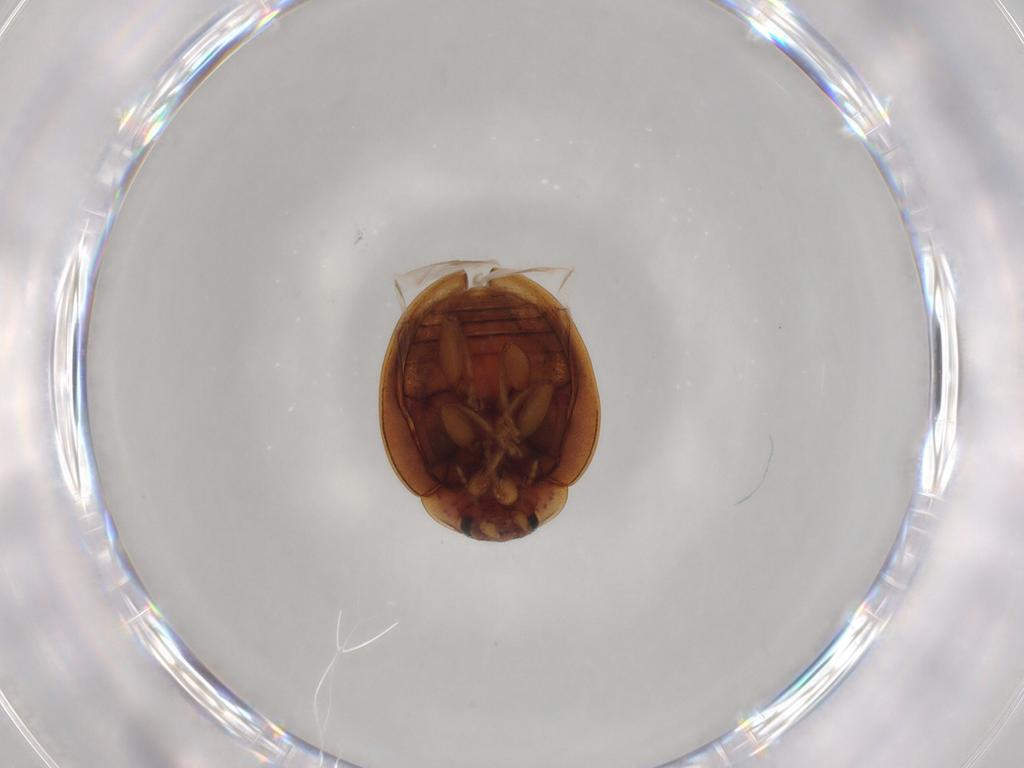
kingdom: Animalia
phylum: Arthropoda
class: Insecta
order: Coleoptera
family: Coccinellidae
